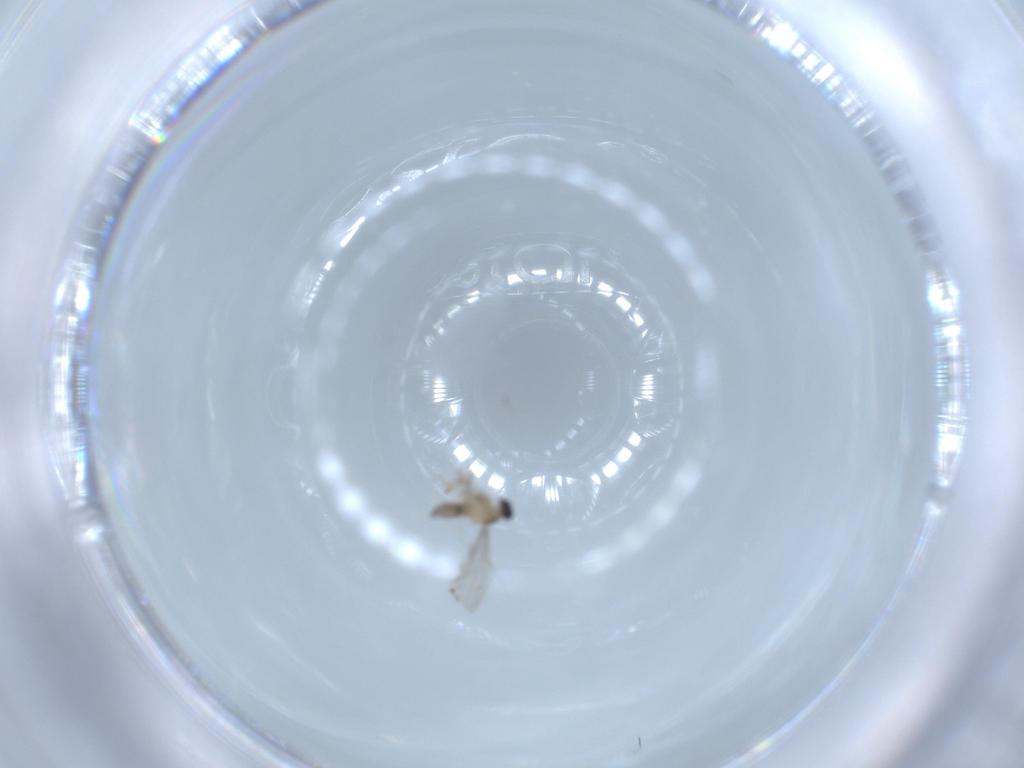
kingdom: Animalia
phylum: Arthropoda
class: Insecta
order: Diptera
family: Cecidomyiidae
